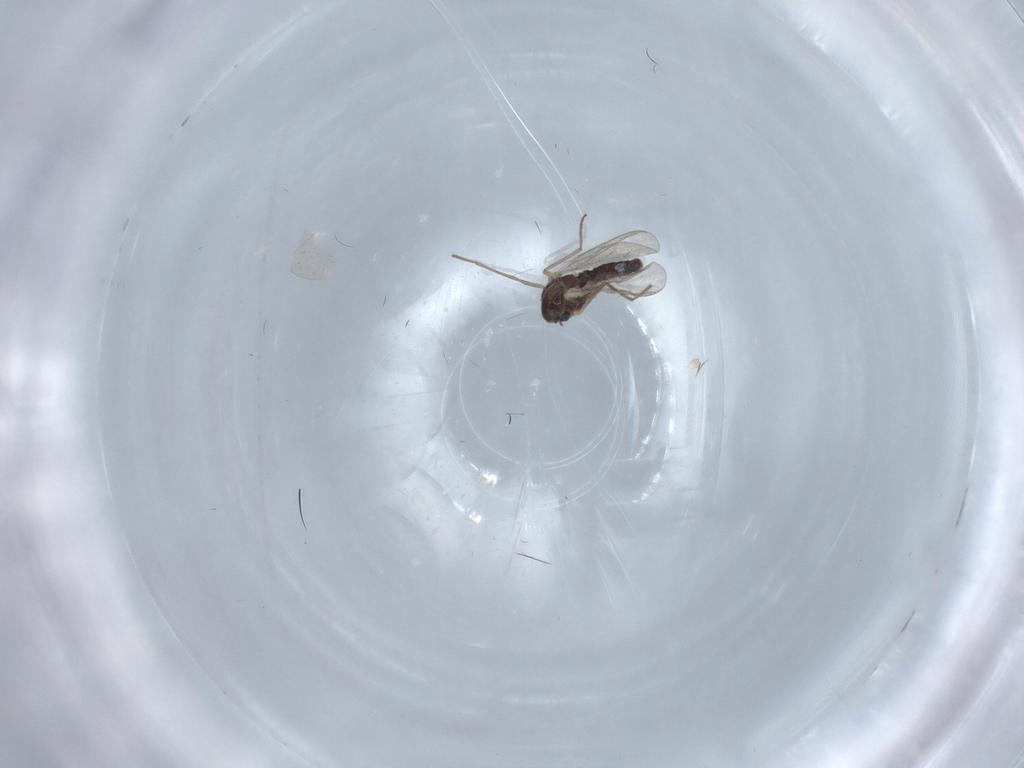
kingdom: Animalia
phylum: Arthropoda
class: Insecta
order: Diptera
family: Chironomidae
